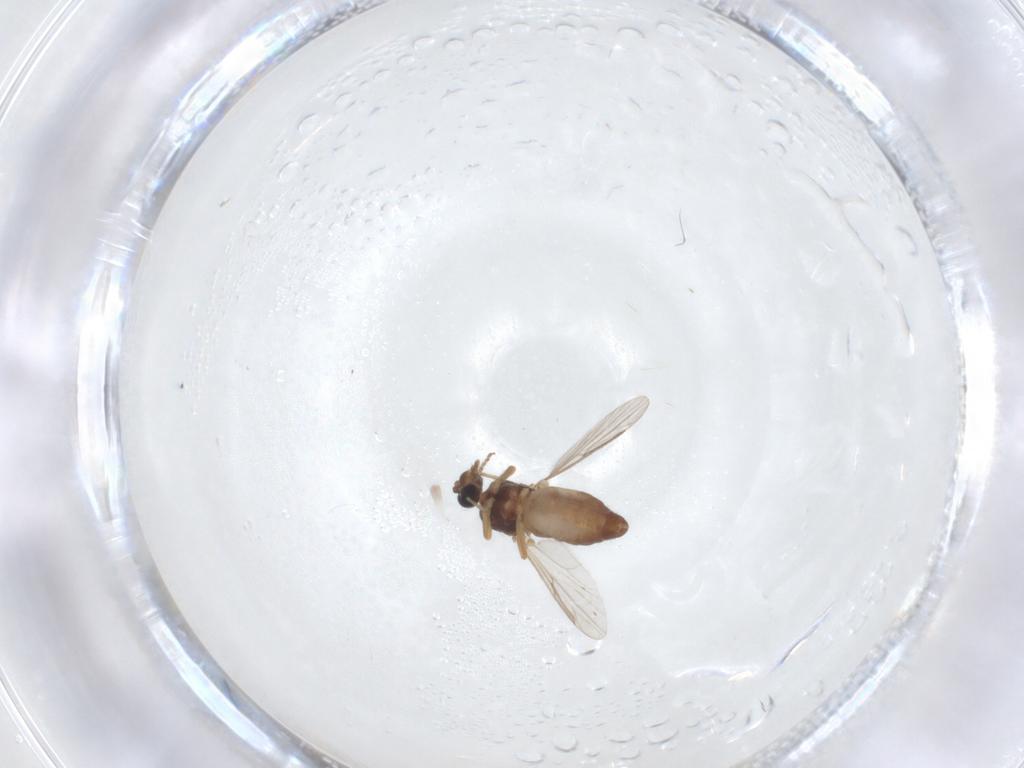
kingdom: Animalia
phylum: Arthropoda
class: Insecta
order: Diptera
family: Ceratopogonidae
